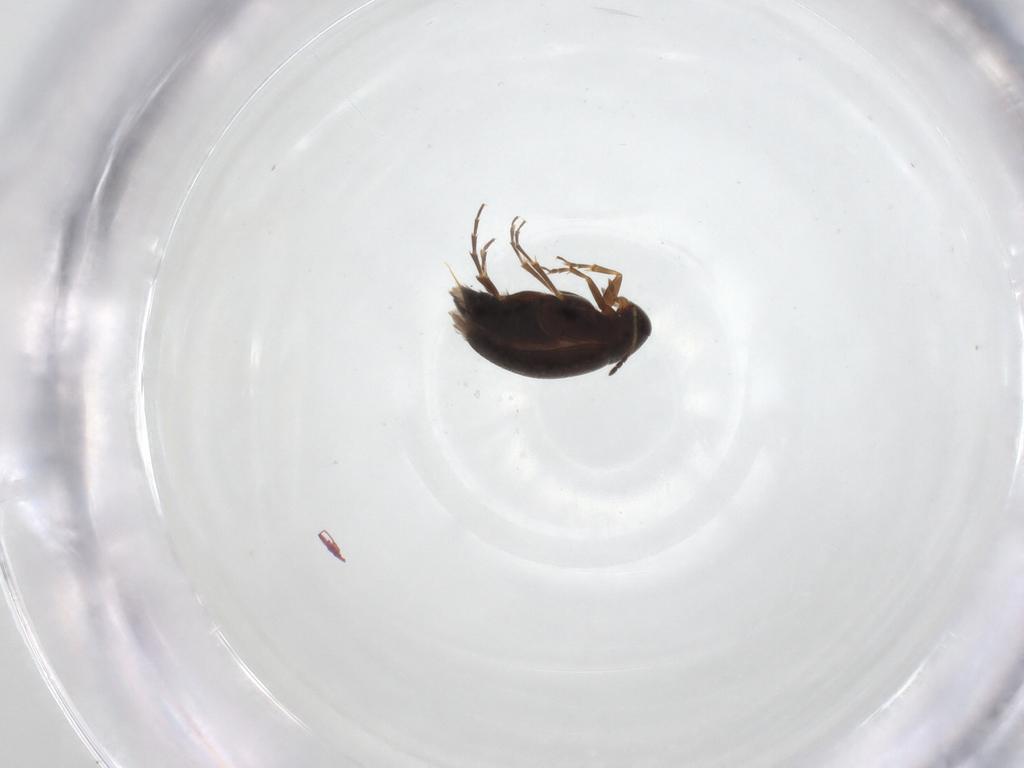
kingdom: Animalia
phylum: Arthropoda
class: Insecta
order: Coleoptera
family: Scraptiidae
